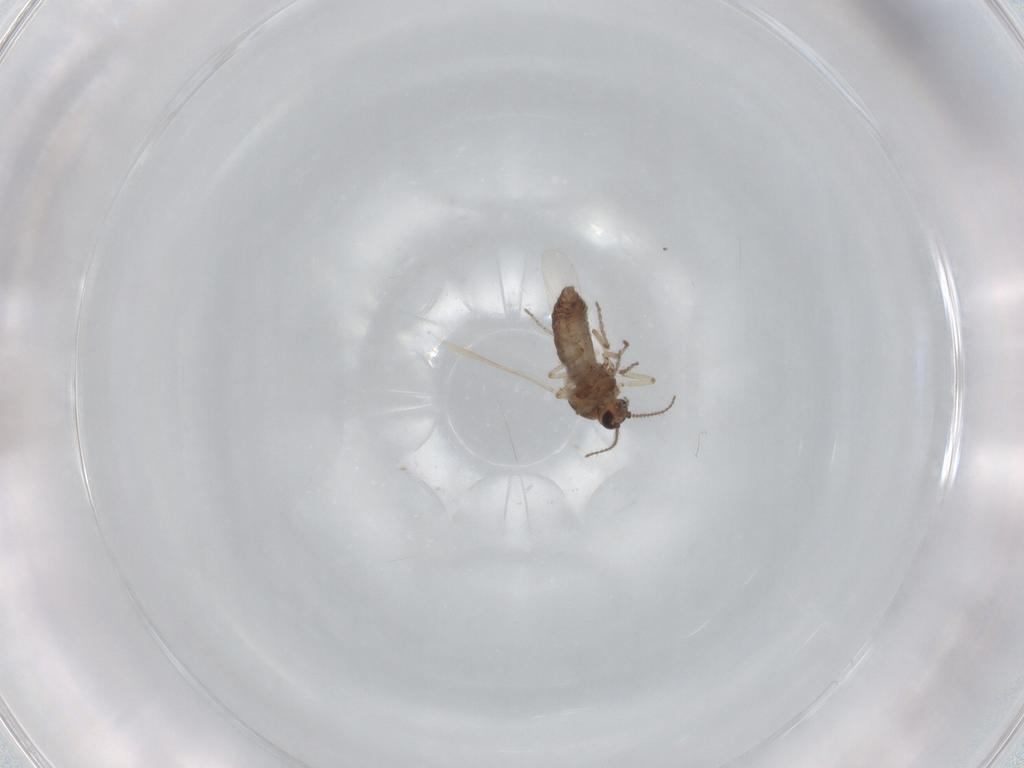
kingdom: Animalia
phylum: Arthropoda
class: Insecta
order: Diptera
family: Ceratopogonidae
